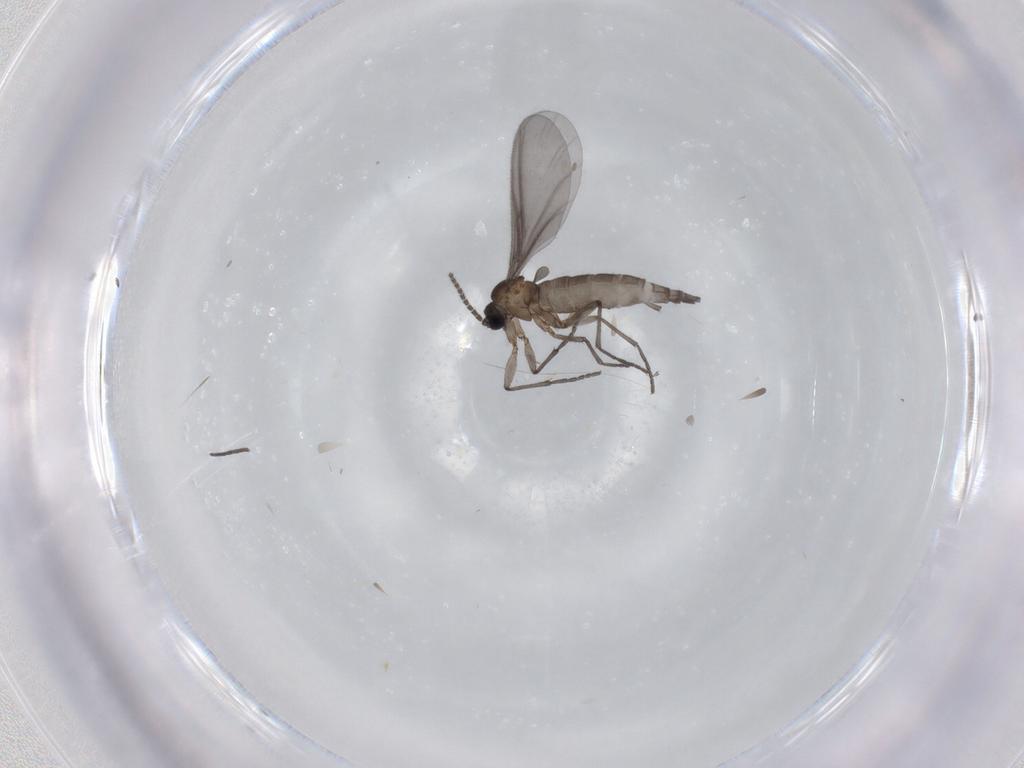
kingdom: Animalia
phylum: Arthropoda
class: Insecta
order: Diptera
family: Sciaridae
